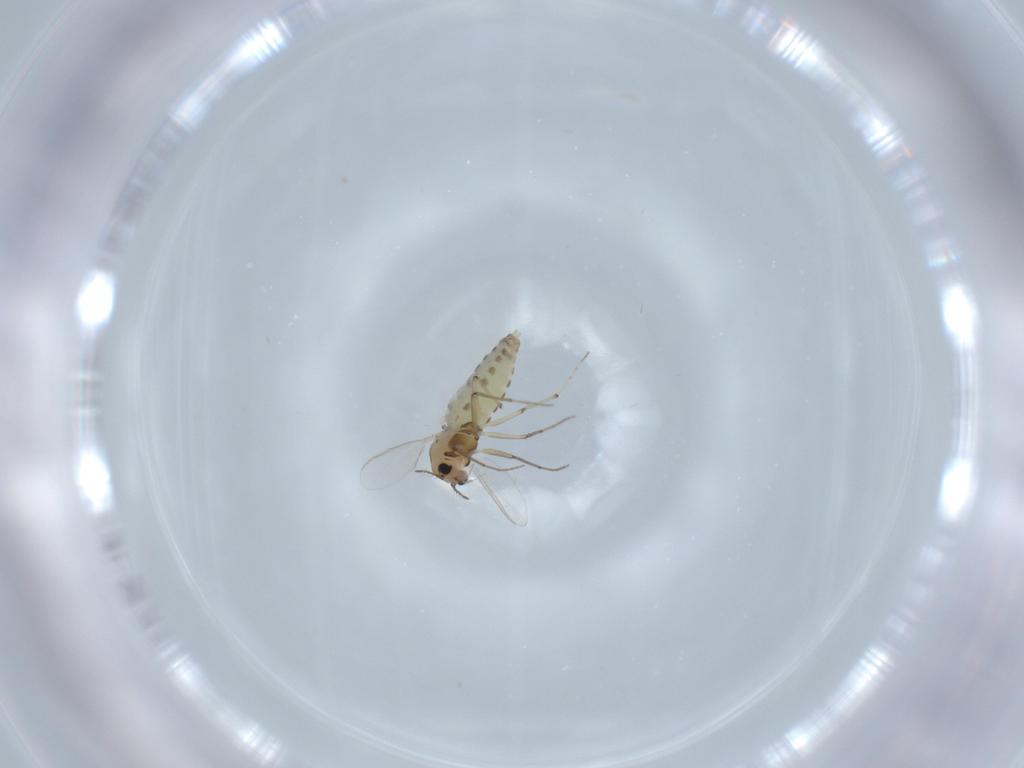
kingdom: Animalia
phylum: Arthropoda
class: Insecta
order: Diptera
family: Chironomidae
